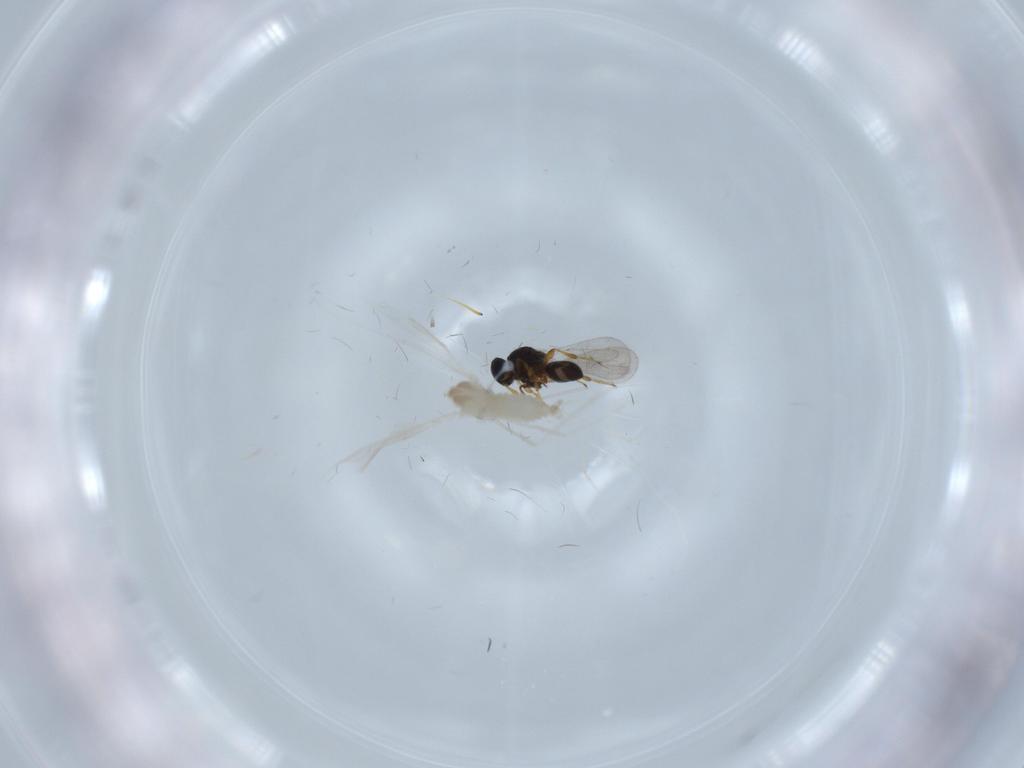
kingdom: Animalia
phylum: Arthropoda
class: Insecta
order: Hymenoptera
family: Platygastridae
